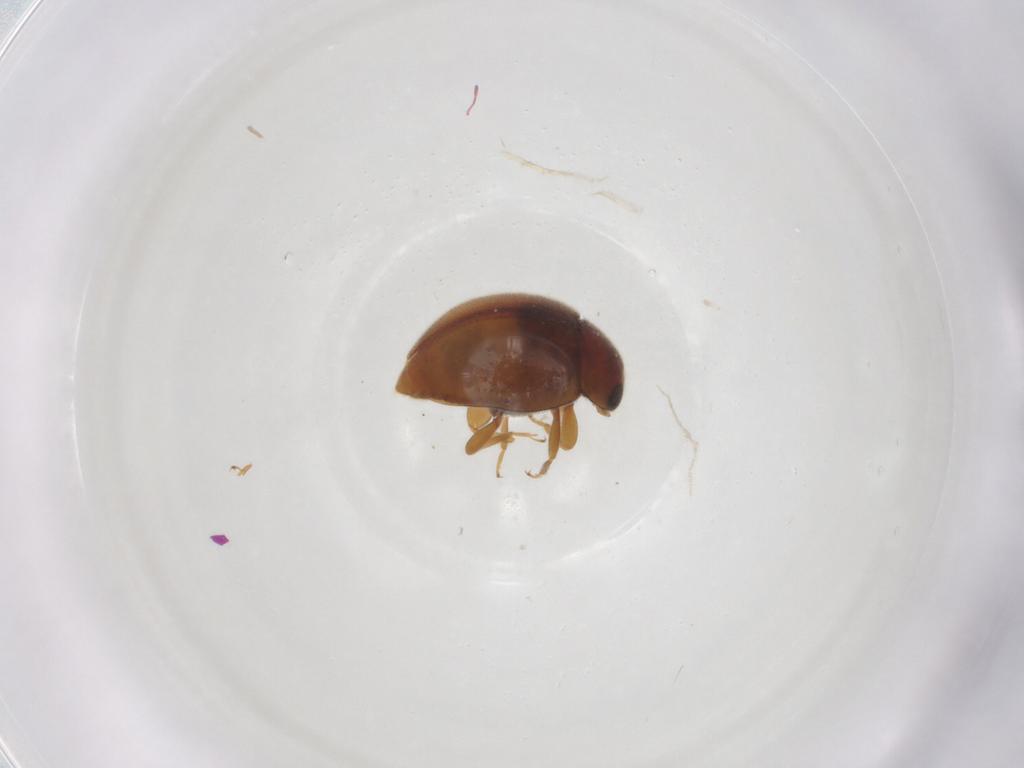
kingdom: Animalia
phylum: Arthropoda
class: Insecta
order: Coleoptera
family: Coccinellidae
